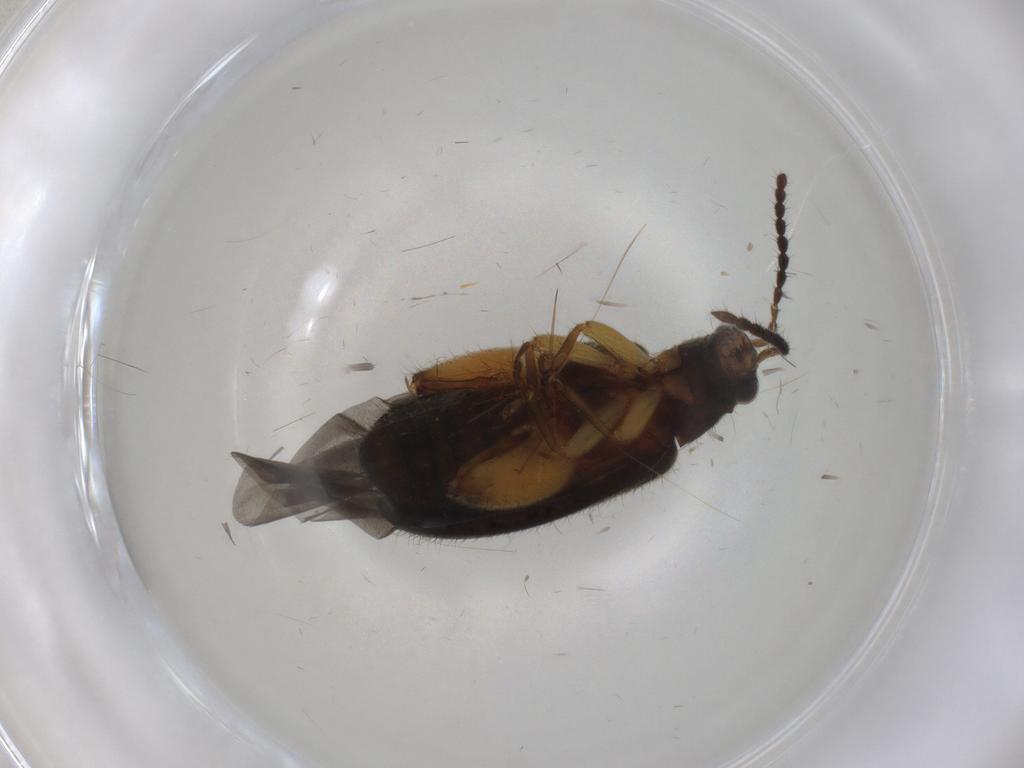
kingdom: Animalia
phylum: Arthropoda
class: Insecta
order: Coleoptera
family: Chrysomelidae
